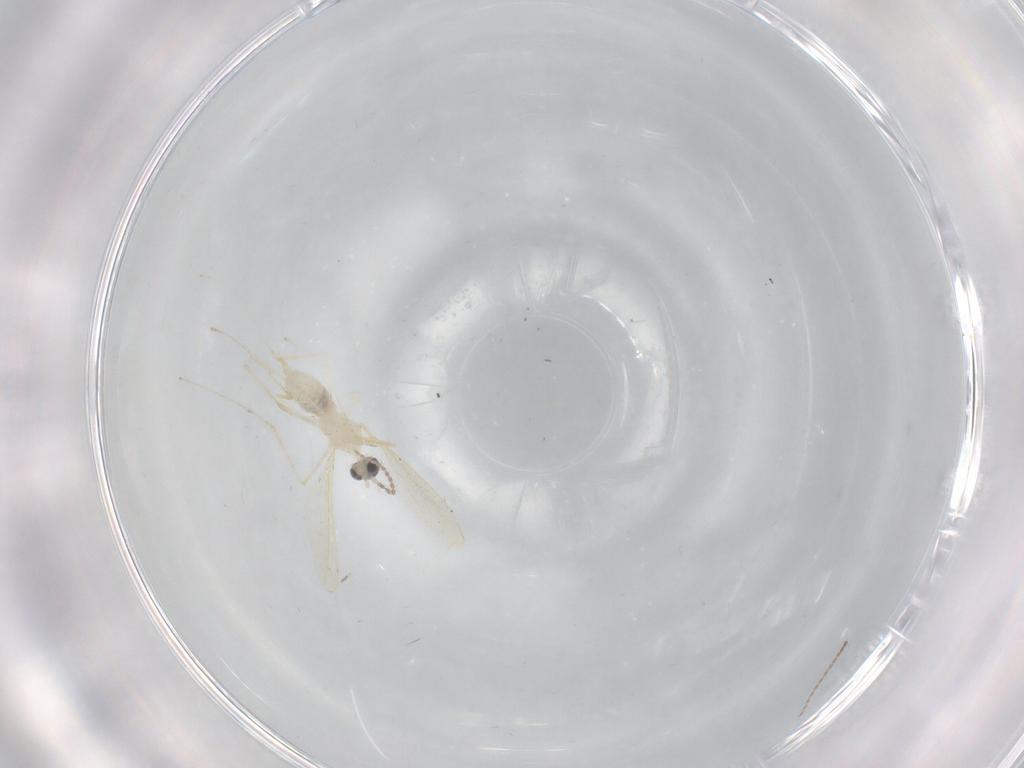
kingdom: Animalia
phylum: Arthropoda
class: Insecta
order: Diptera
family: Cecidomyiidae
